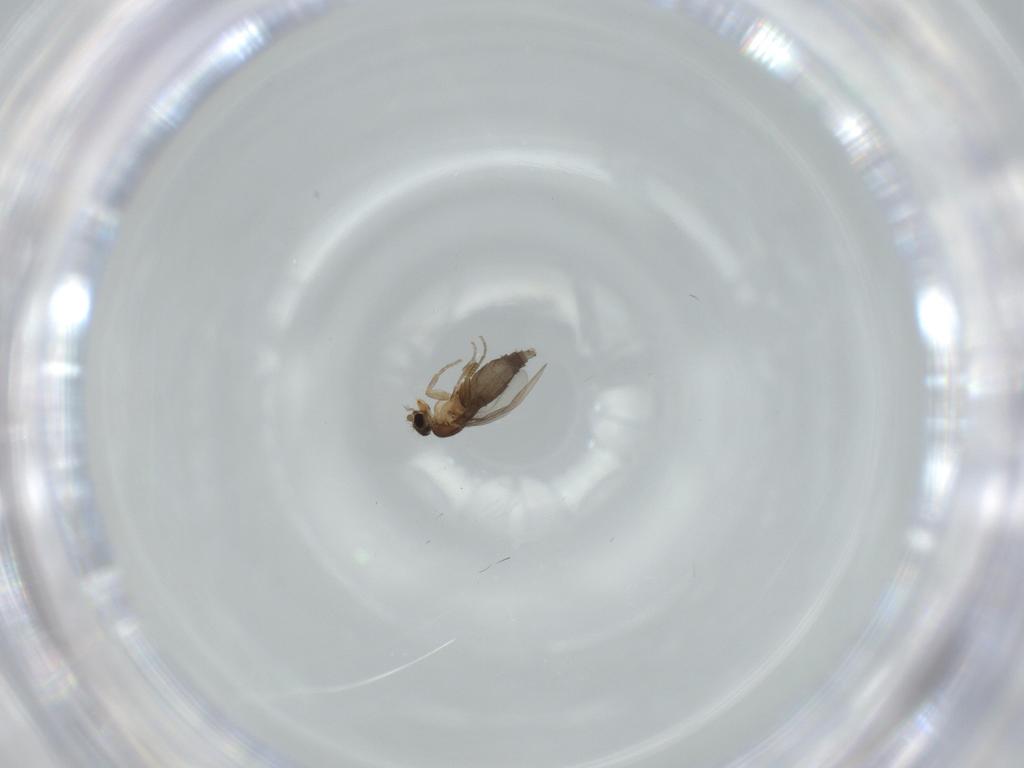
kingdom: Animalia
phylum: Arthropoda
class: Insecta
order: Diptera
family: Phoridae
